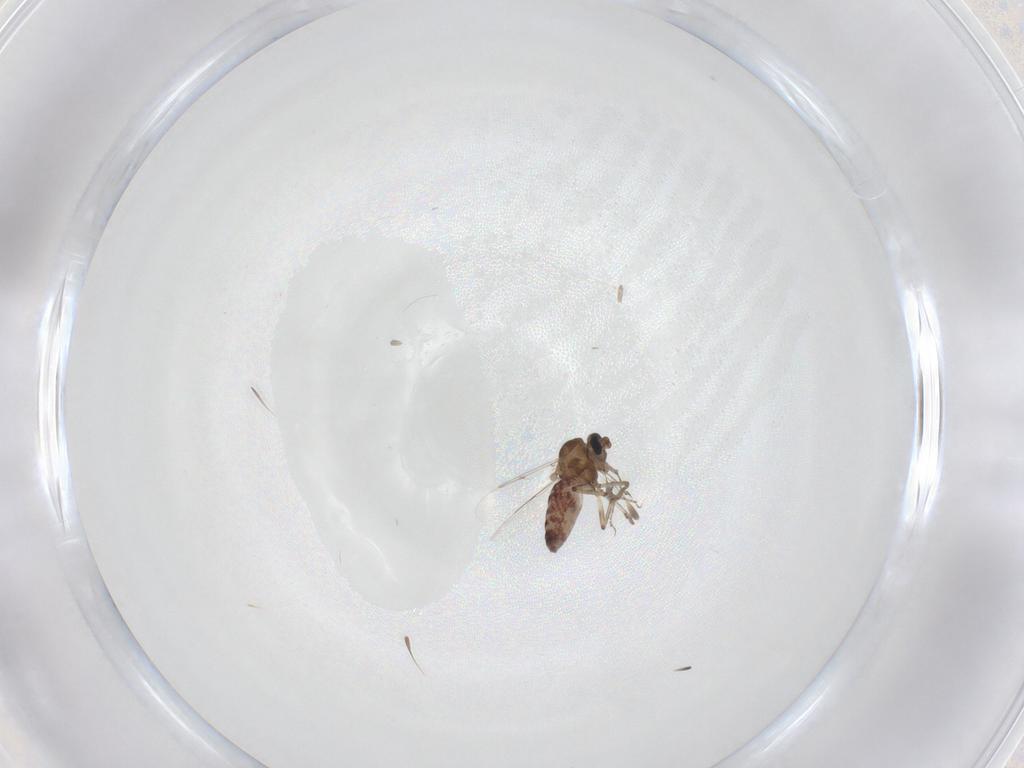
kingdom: Animalia
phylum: Arthropoda
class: Insecta
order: Diptera
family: Ceratopogonidae
